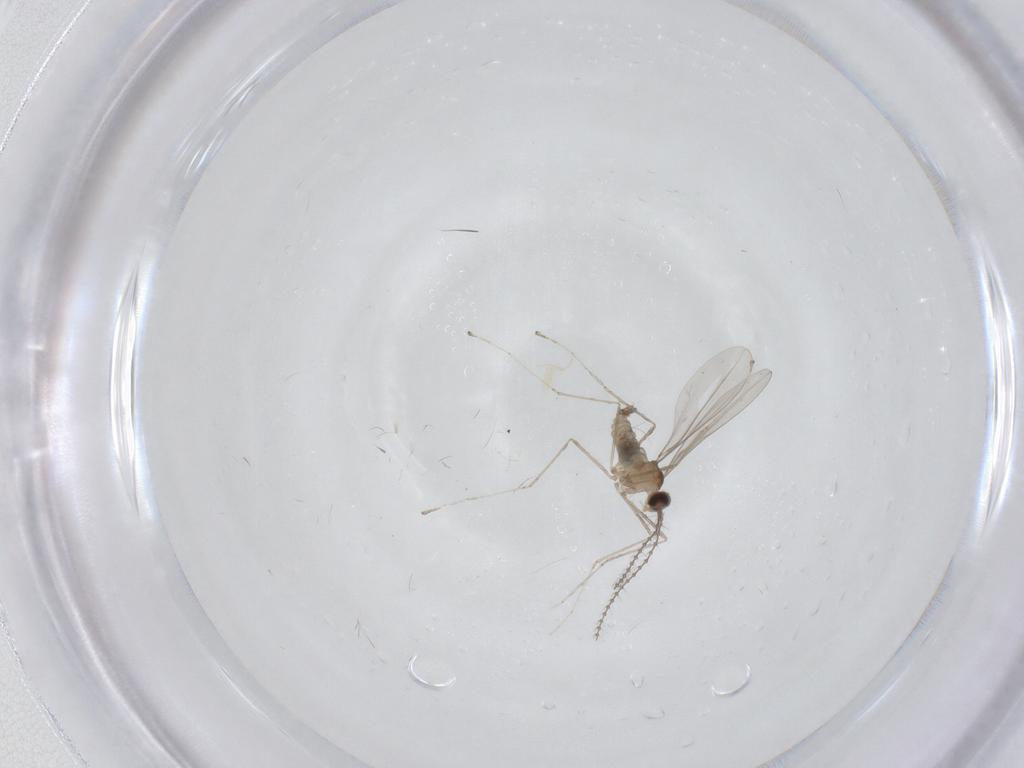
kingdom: Animalia
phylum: Arthropoda
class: Insecta
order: Diptera
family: Cecidomyiidae
